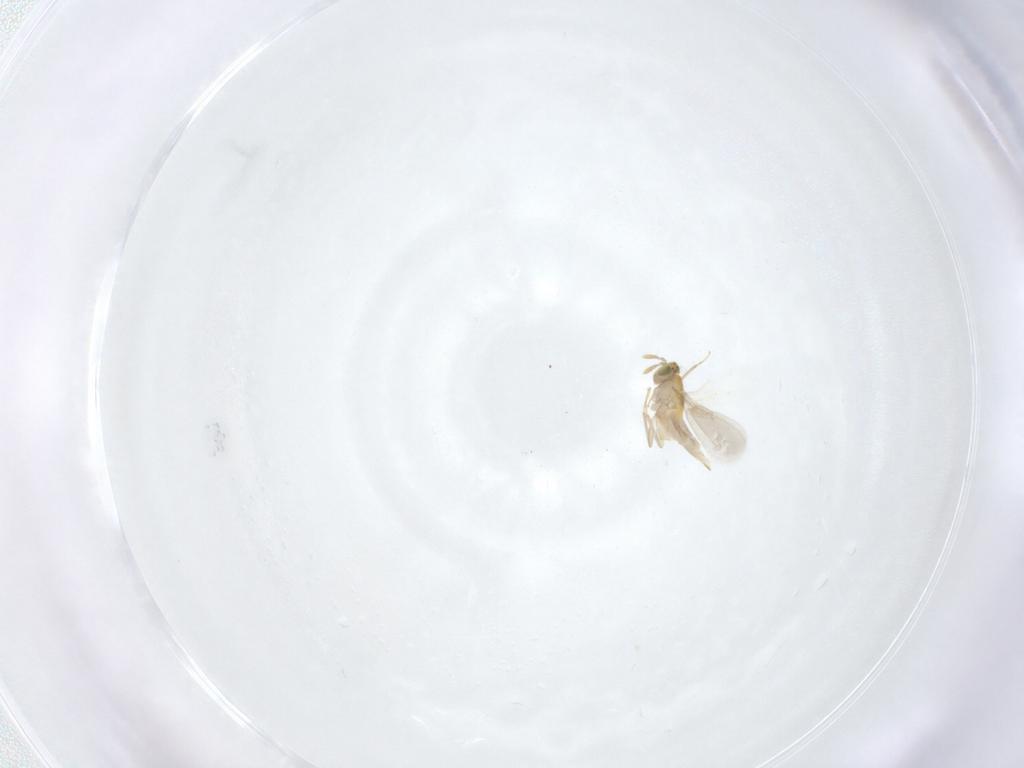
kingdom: Animalia
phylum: Arthropoda
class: Insecta
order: Hymenoptera
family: Aphelinidae
